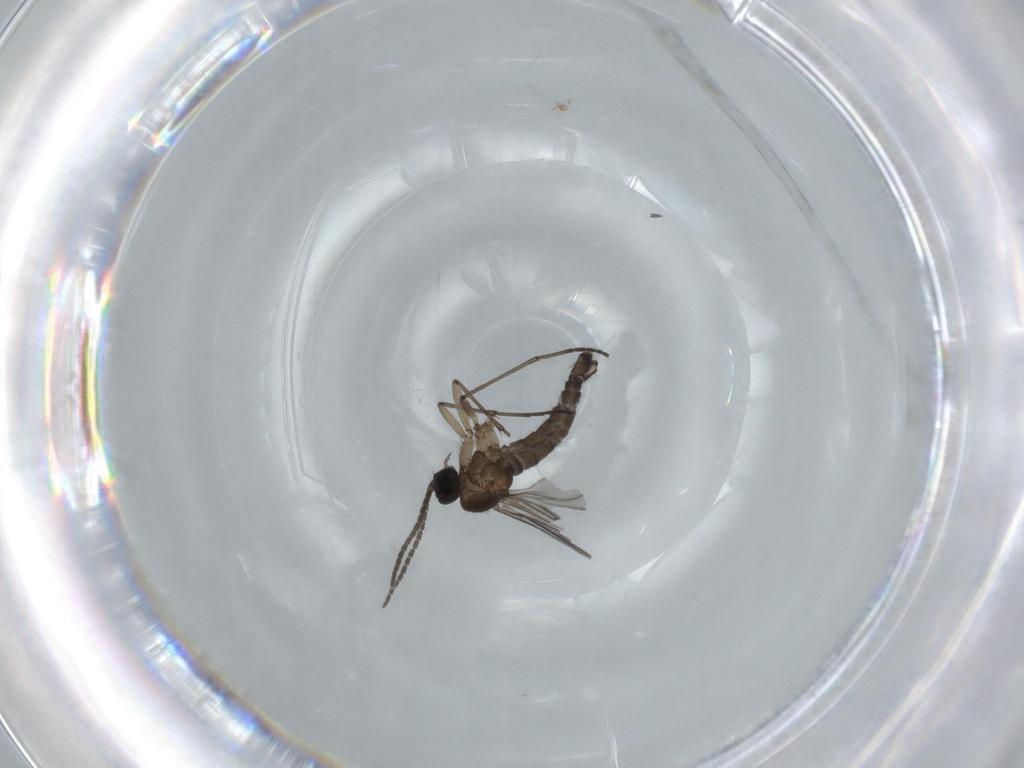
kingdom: Animalia
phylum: Arthropoda
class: Insecta
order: Diptera
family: Sciaridae
